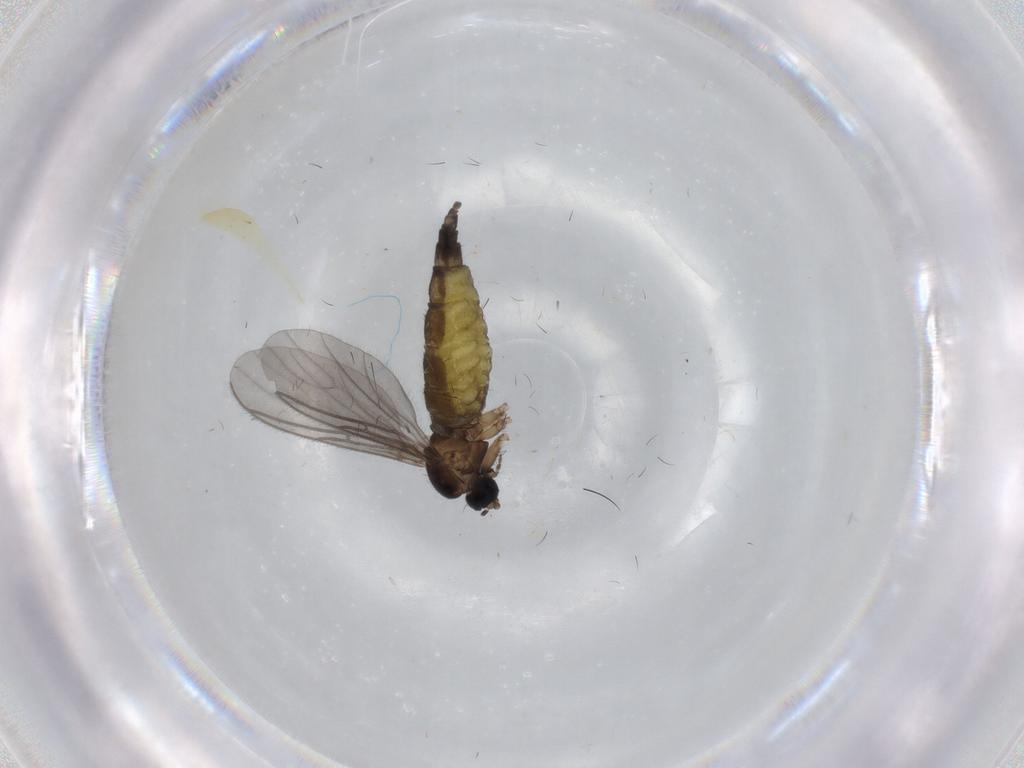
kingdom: Animalia
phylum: Arthropoda
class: Insecta
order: Diptera
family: Sciaridae
